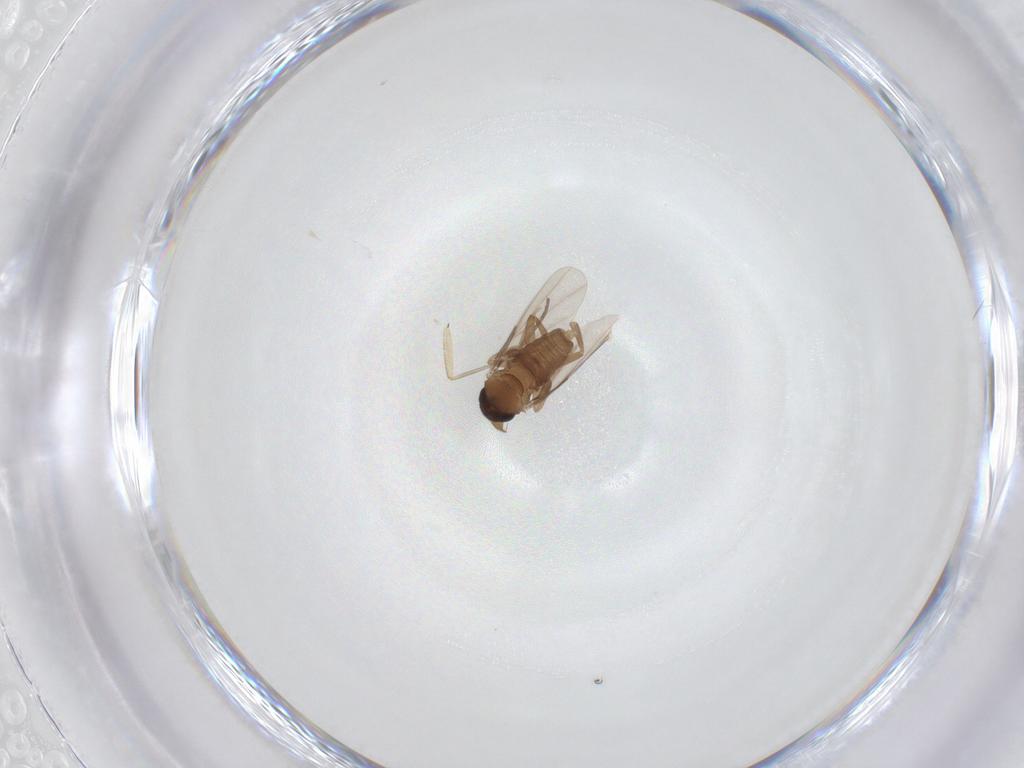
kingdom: Animalia
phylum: Arthropoda
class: Insecta
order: Diptera
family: Phoridae
